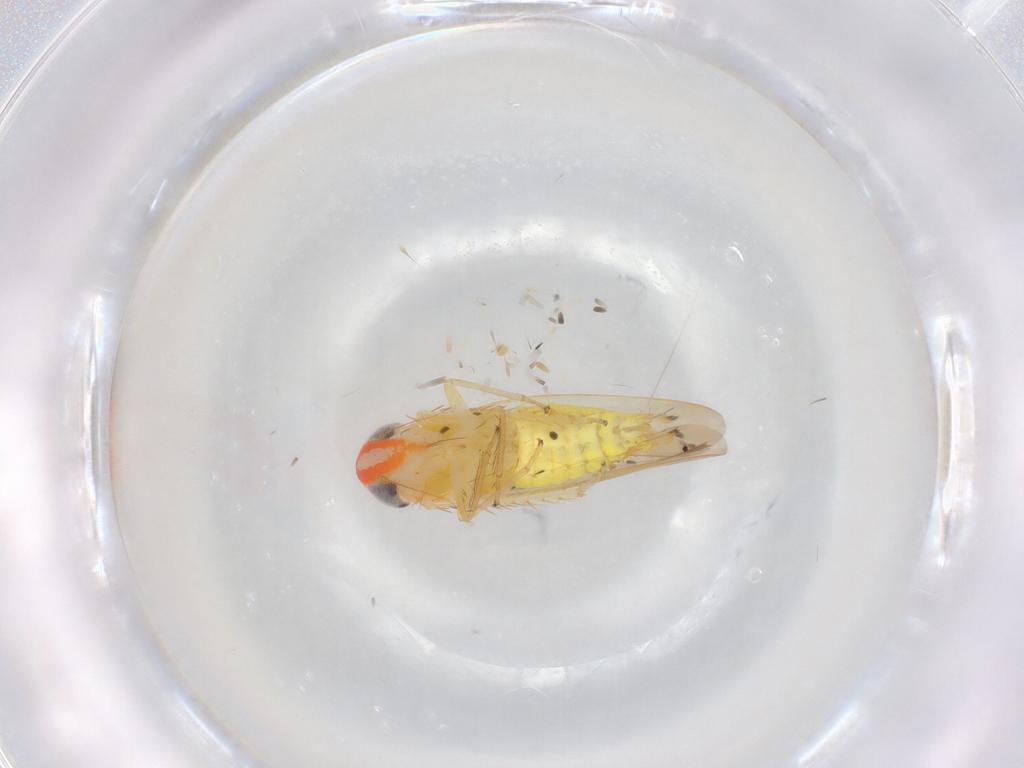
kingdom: Animalia
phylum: Arthropoda
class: Insecta
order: Hemiptera
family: Cicadellidae
